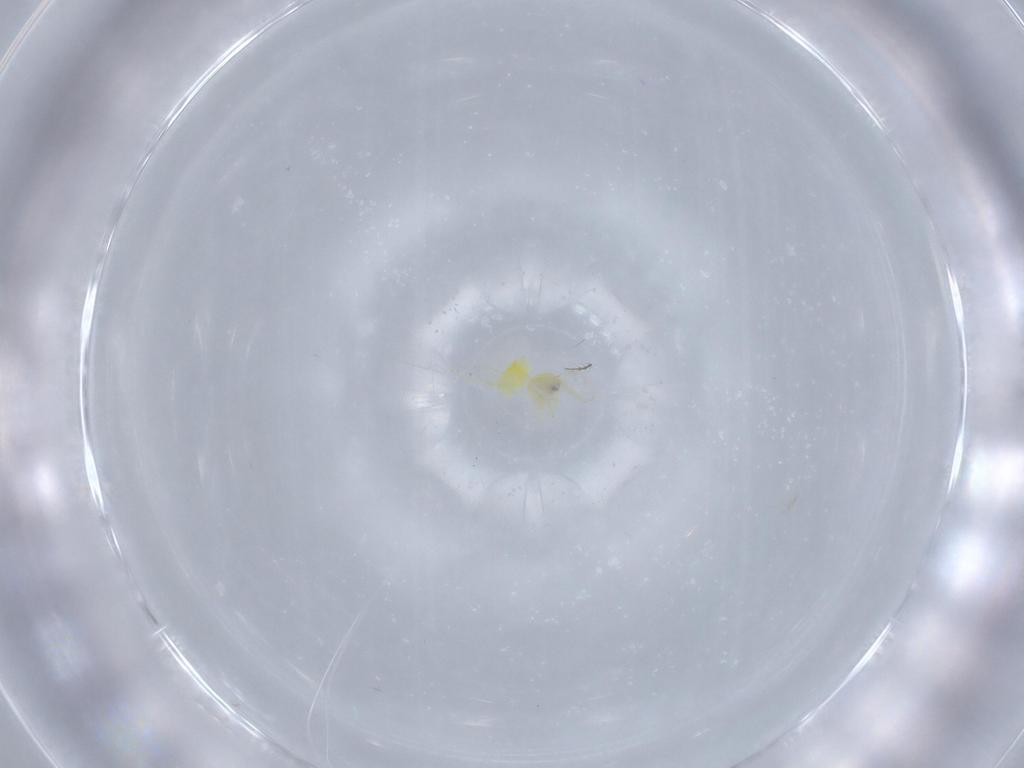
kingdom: Animalia
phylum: Arthropoda
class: Insecta
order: Hemiptera
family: Aleyrodidae
